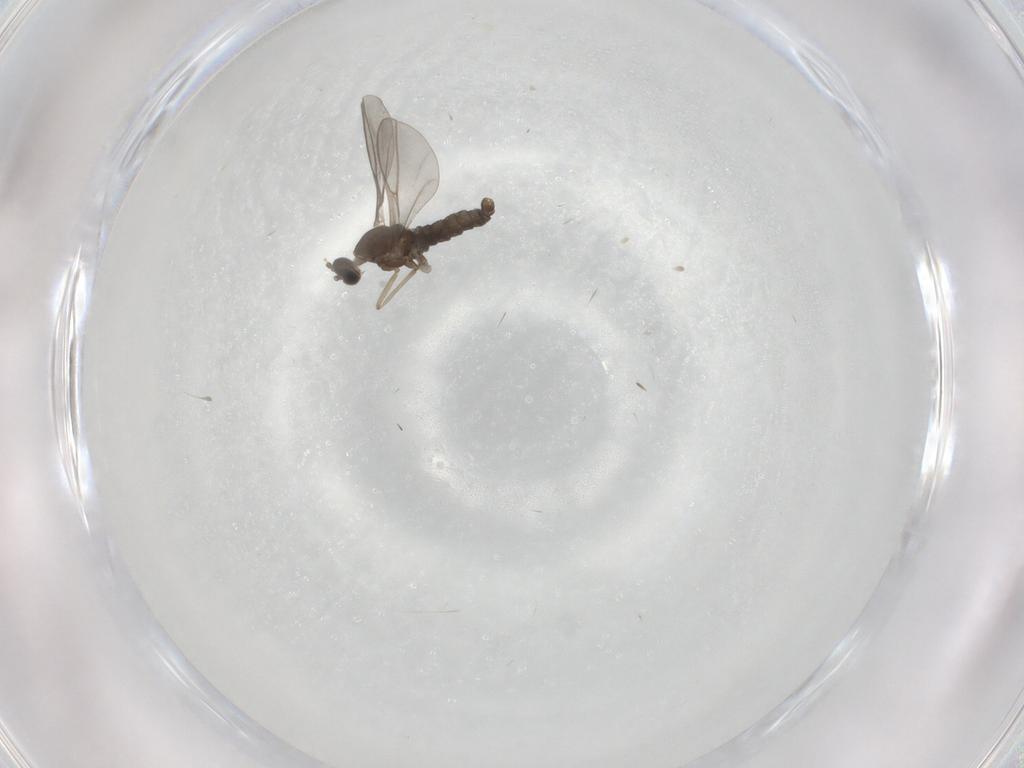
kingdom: Animalia
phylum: Arthropoda
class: Insecta
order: Diptera
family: Cecidomyiidae
